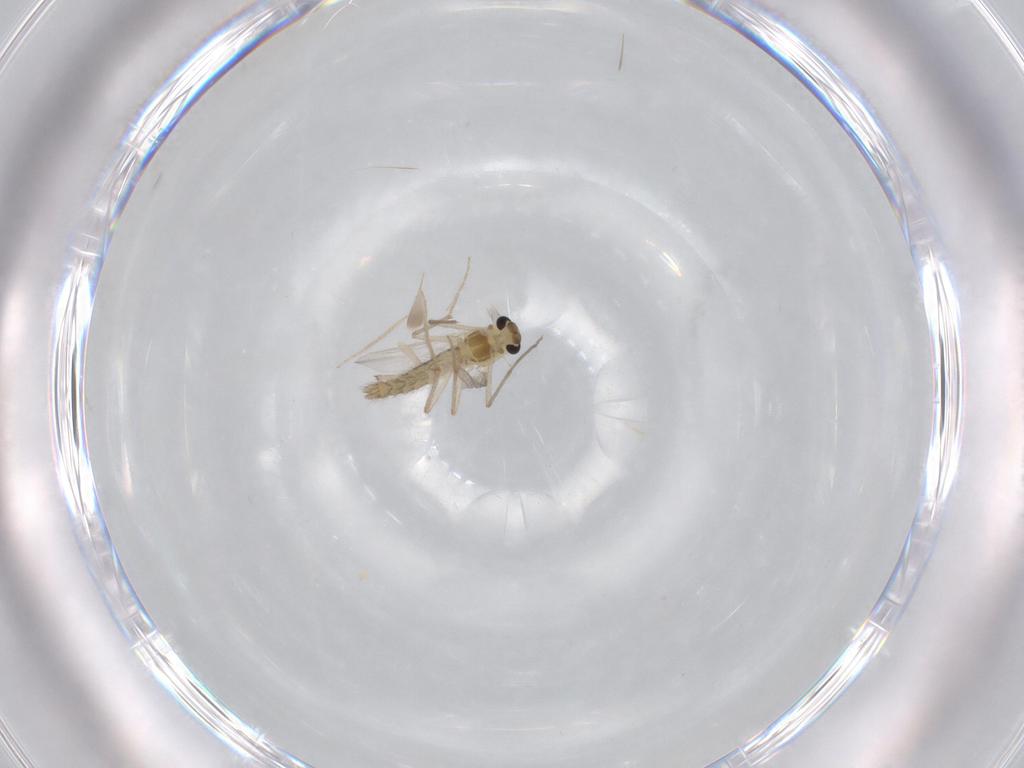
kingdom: Animalia
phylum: Arthropoda
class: Insecta
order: Diptera
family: Chironomidae
